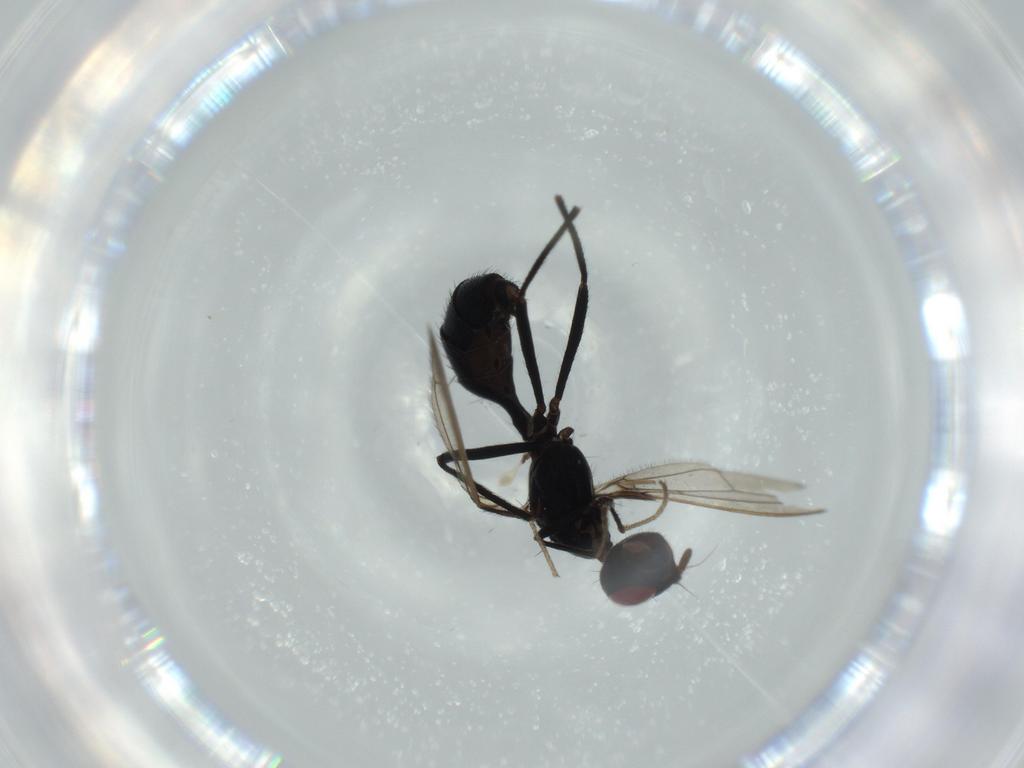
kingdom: Animalia
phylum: Arthropoda
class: Insecta
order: Diptera
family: Richardiidae
